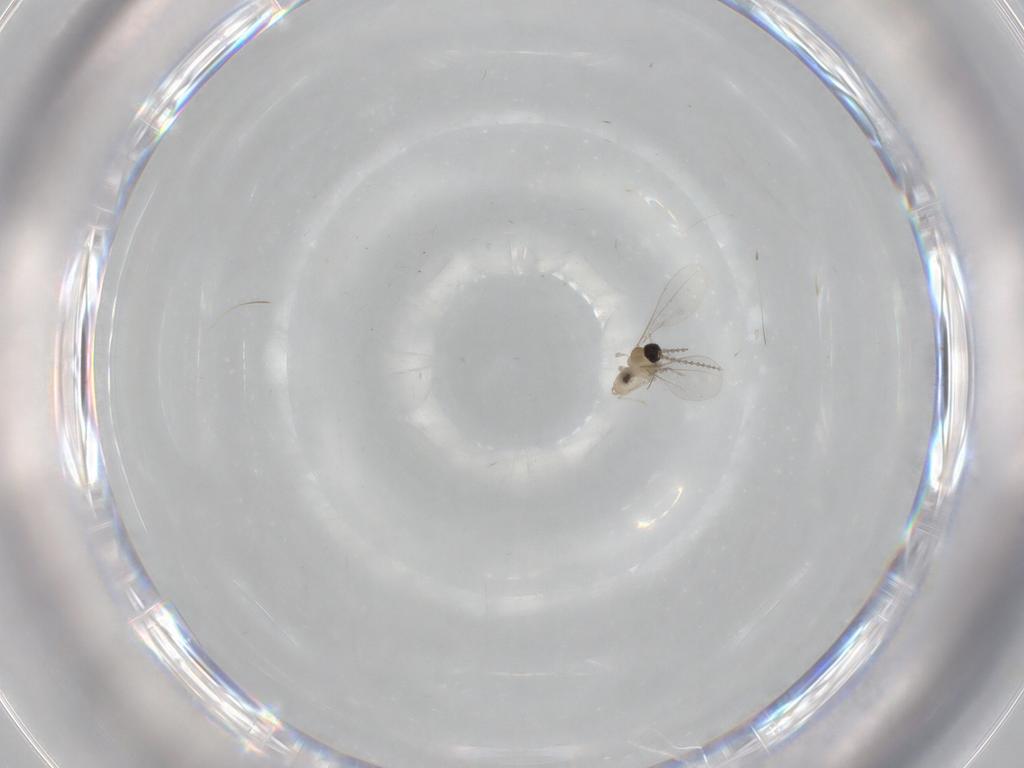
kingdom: Animalia
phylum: Arthropoda
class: Insecta
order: Diptera
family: Cecidomyiidae
